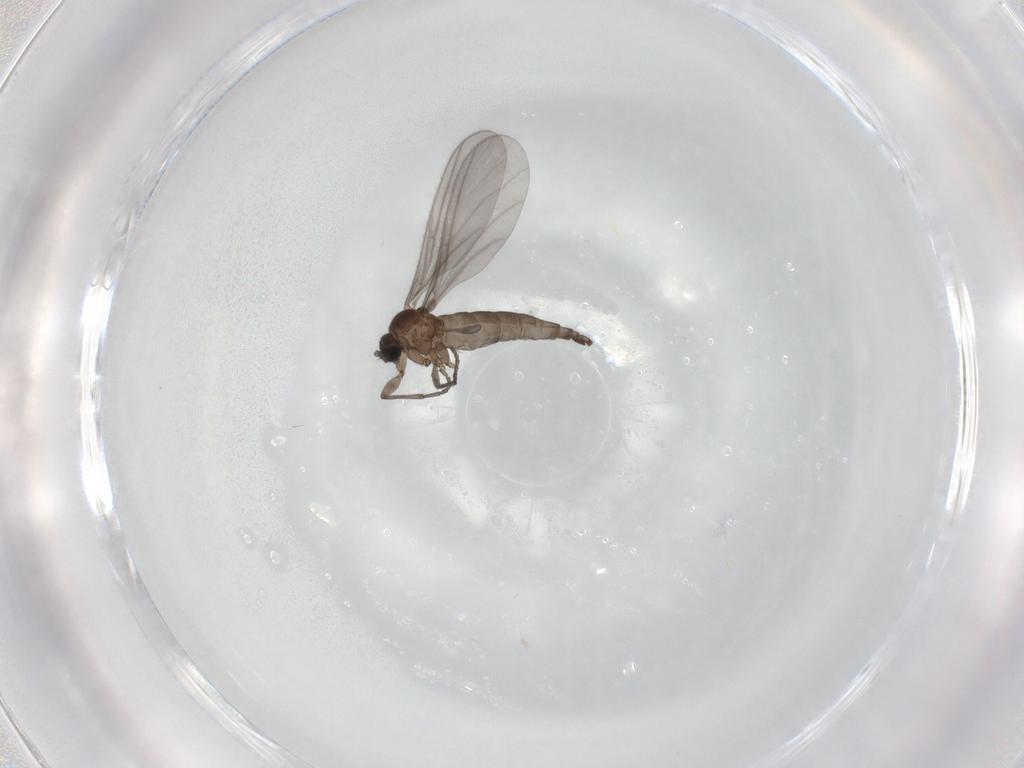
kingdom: Animalia
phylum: Arthropoda
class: Insecta
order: Diptera
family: Sciaridae
